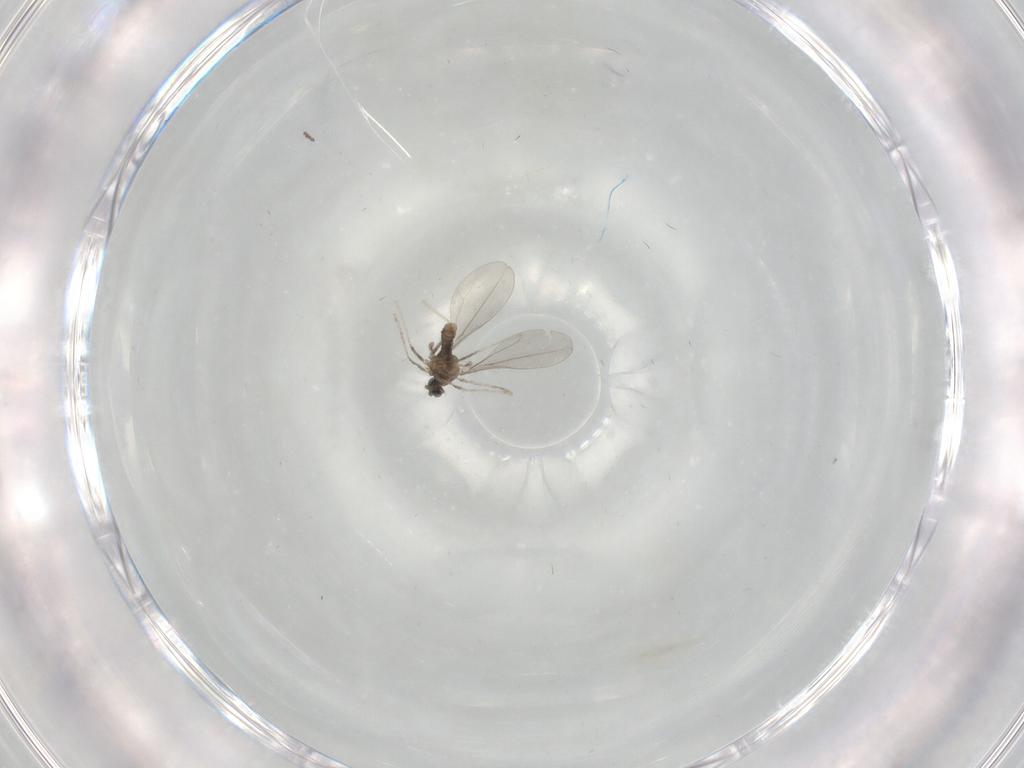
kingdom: Animalia
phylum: Arthropoda
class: Insecta
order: Diptera
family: Cecidomyiidae
